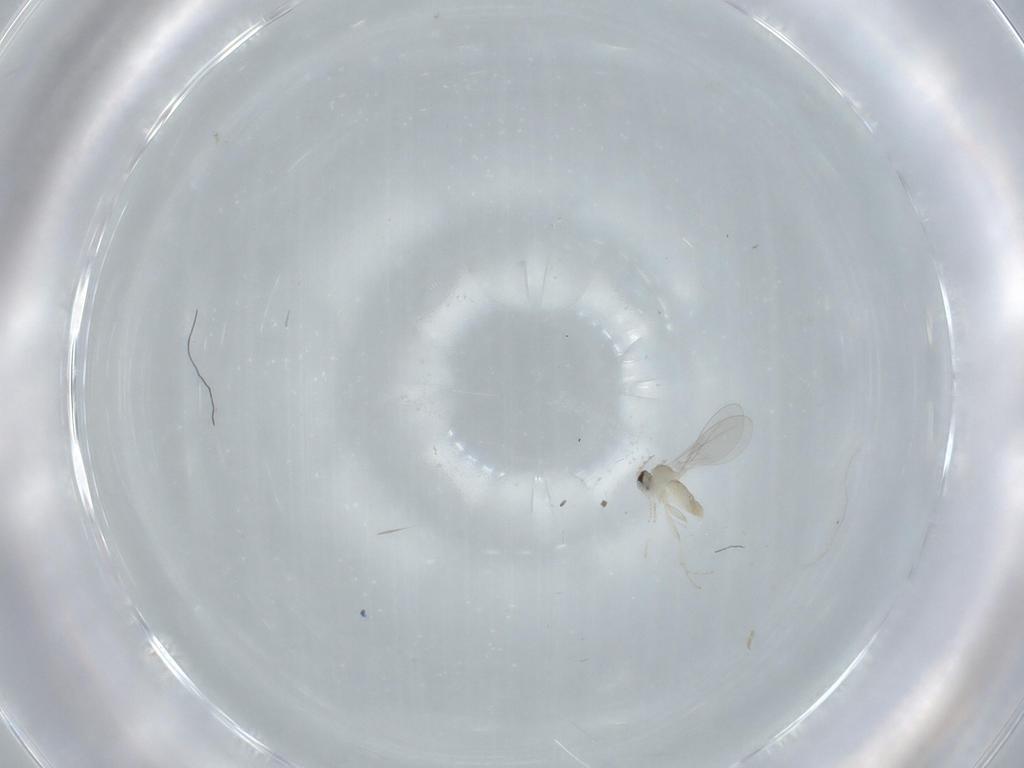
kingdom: Animalia
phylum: Arthropoda
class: Insecta
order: Diptera
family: Cecidomyiidae
